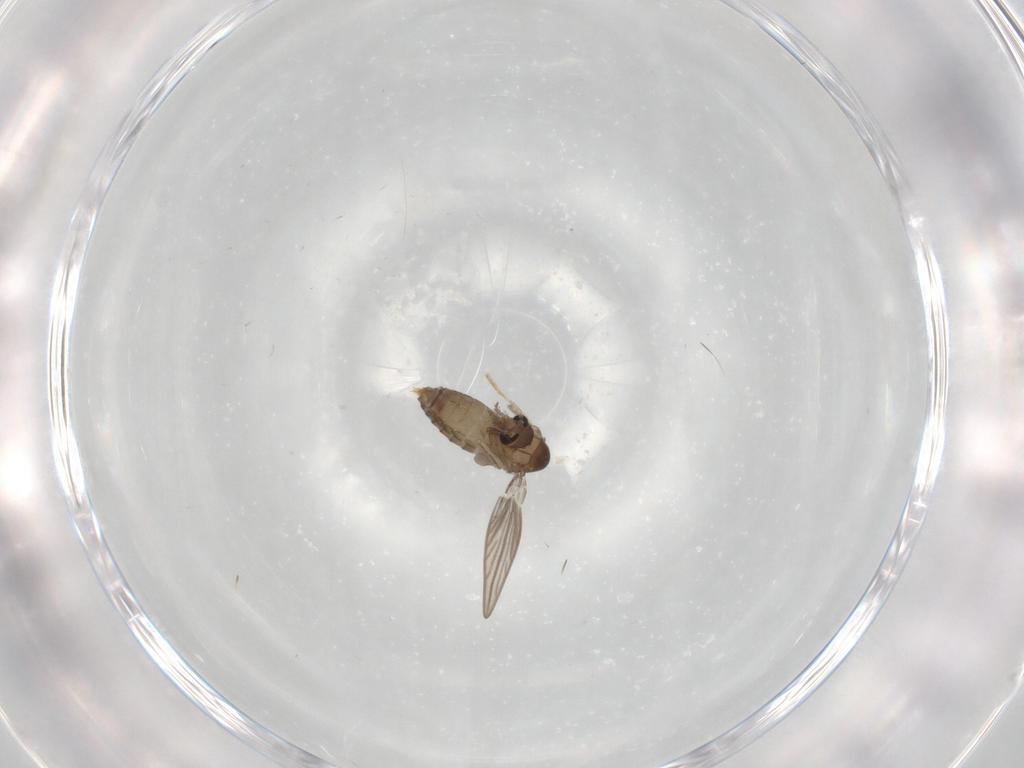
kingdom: Animalia
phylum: Arthropoda
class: Insecta
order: Diptera
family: Psychodidae
